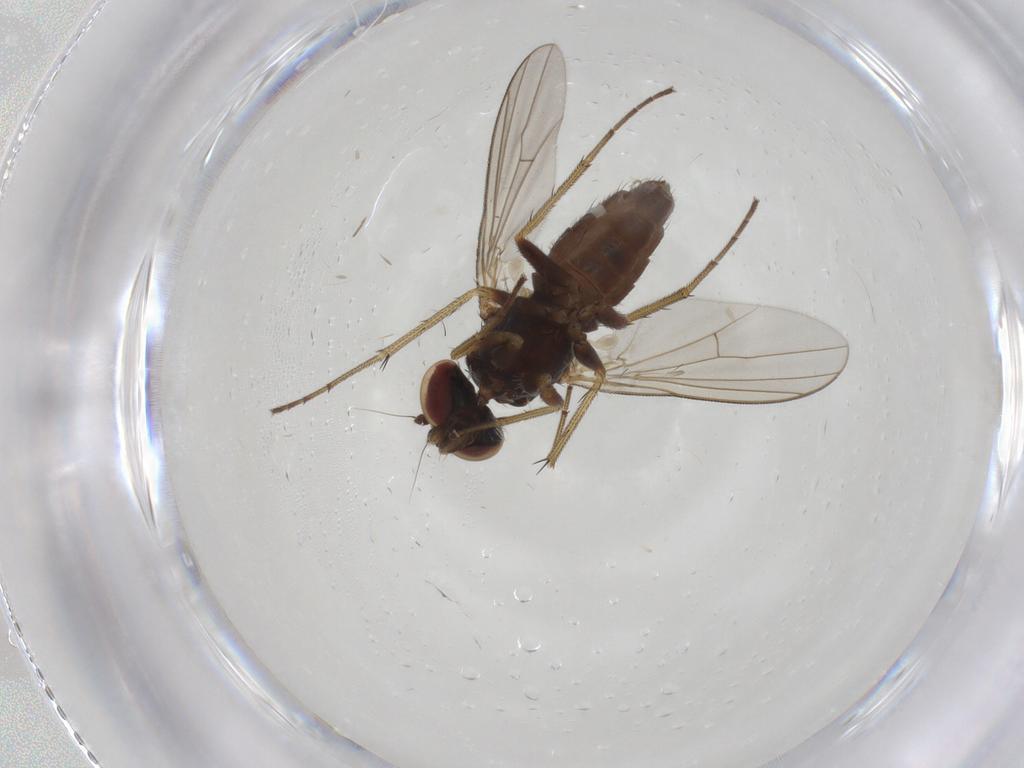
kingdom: Animalia
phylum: Arthropoda
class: Insecta
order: Diptera
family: Dolichopodidae
